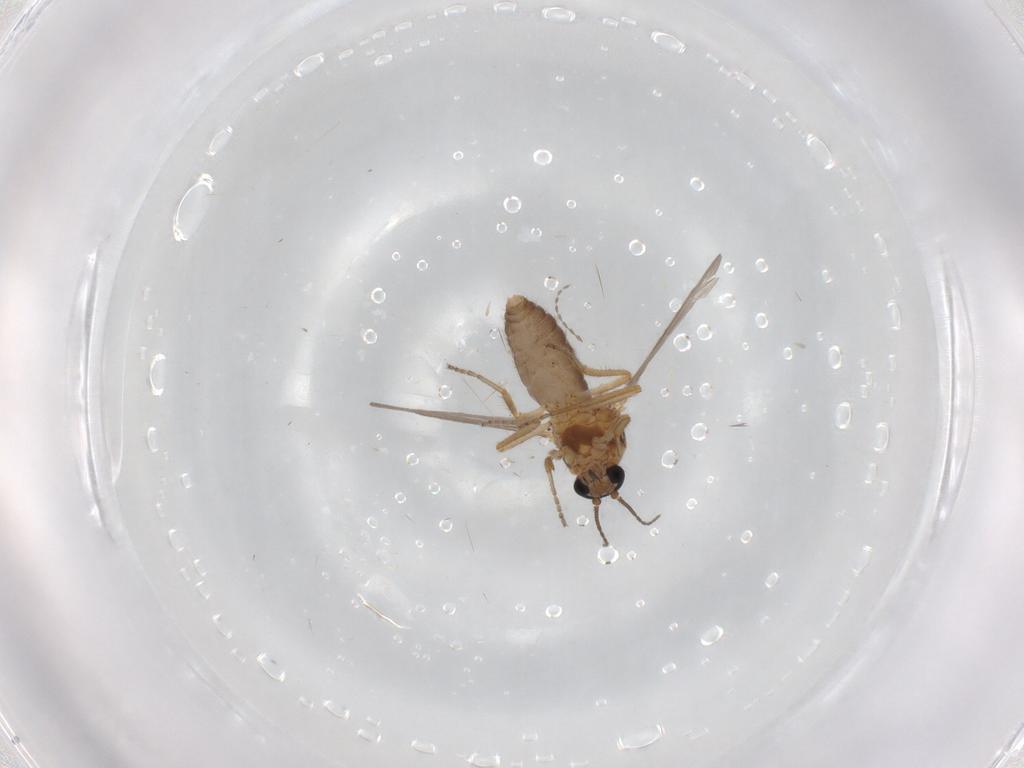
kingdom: Animalia
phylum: Arthropoda
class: Insecta
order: Diptera
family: Ceratopogonidae
